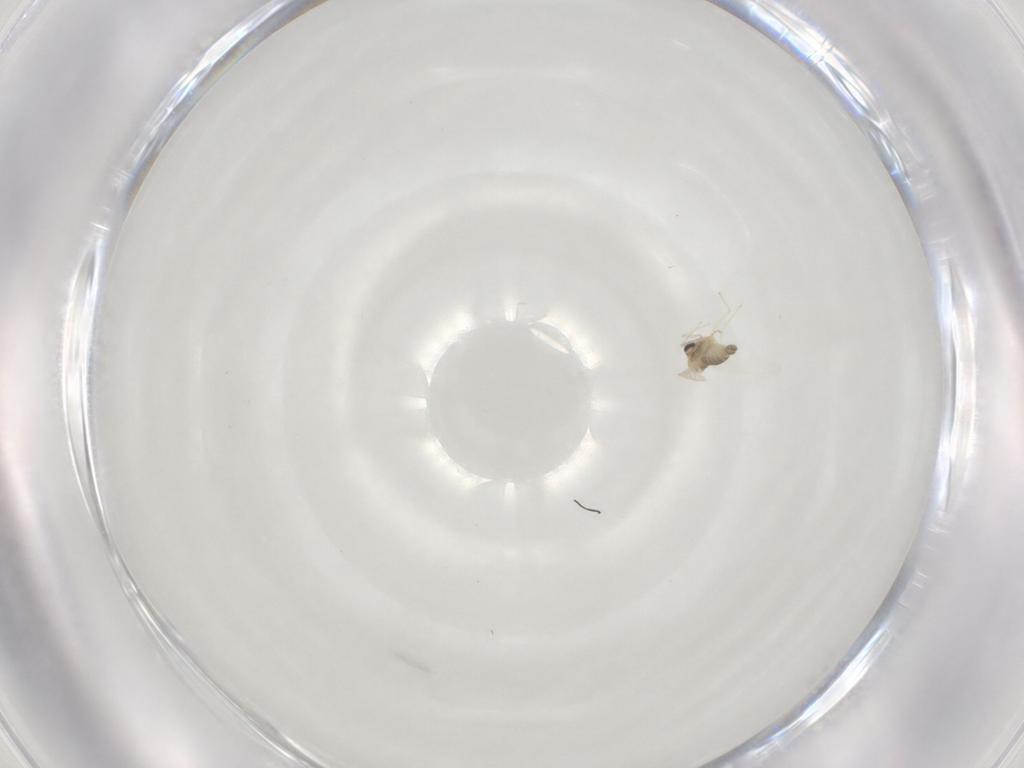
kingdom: Animalia
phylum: Arthropoda
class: Insecta
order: Diptera
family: Chironomidae
